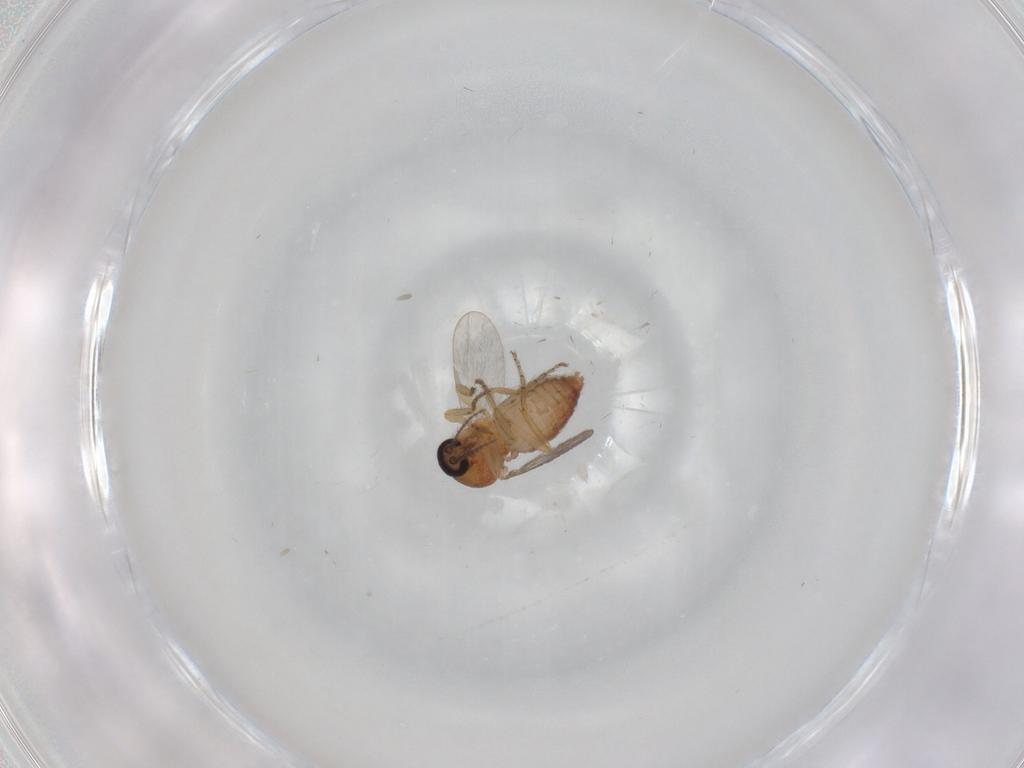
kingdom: Animalia
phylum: Arthropoda
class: Insecta
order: Diptera
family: Ceratopogonidae
